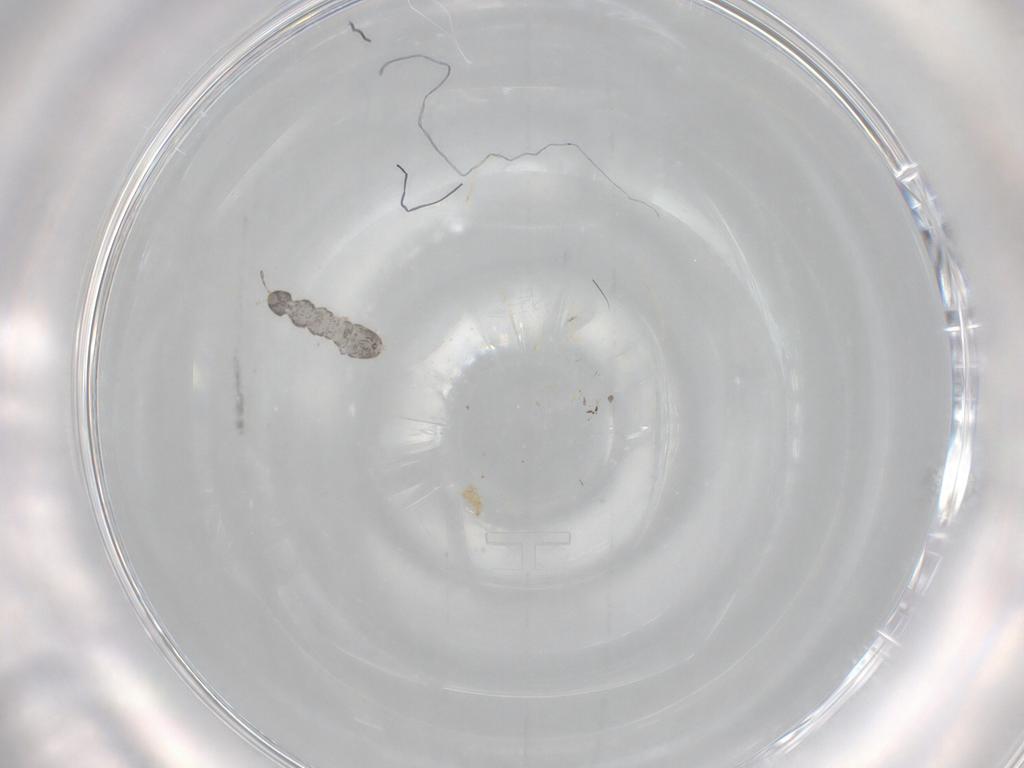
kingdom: Animalia
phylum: Arthropoda
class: Collembola
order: Entomobryomorpha
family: Isotomidae
